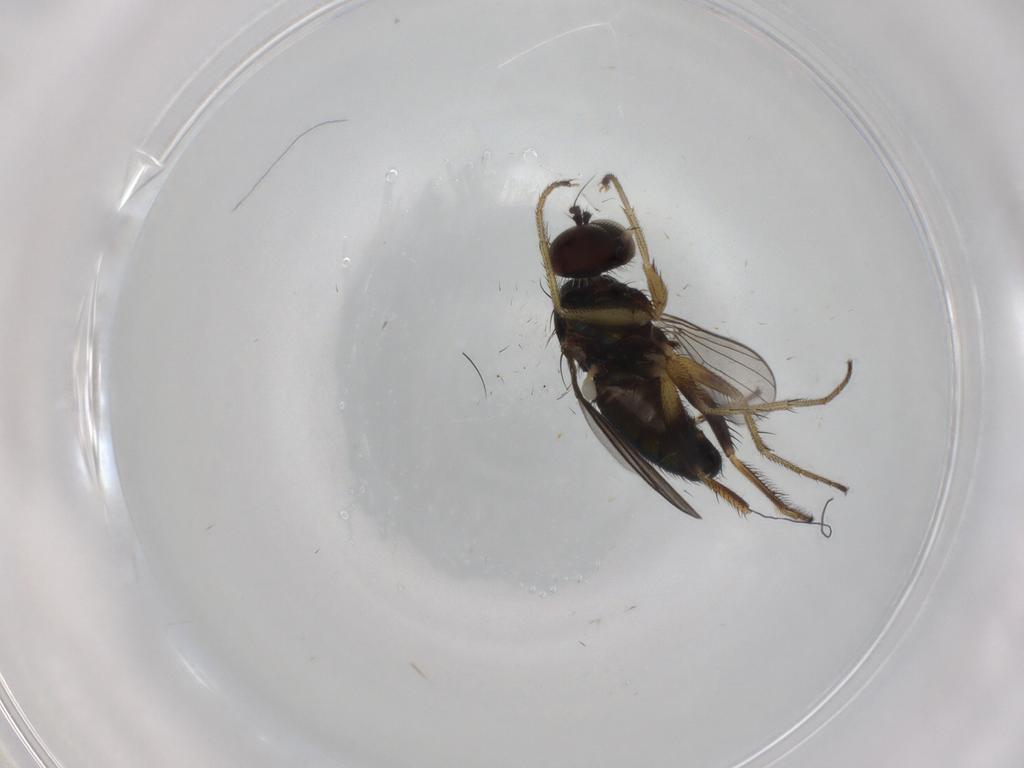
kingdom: Animalia
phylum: Arthropoda
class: Insecta
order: Diptera
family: Dolichopodidae
